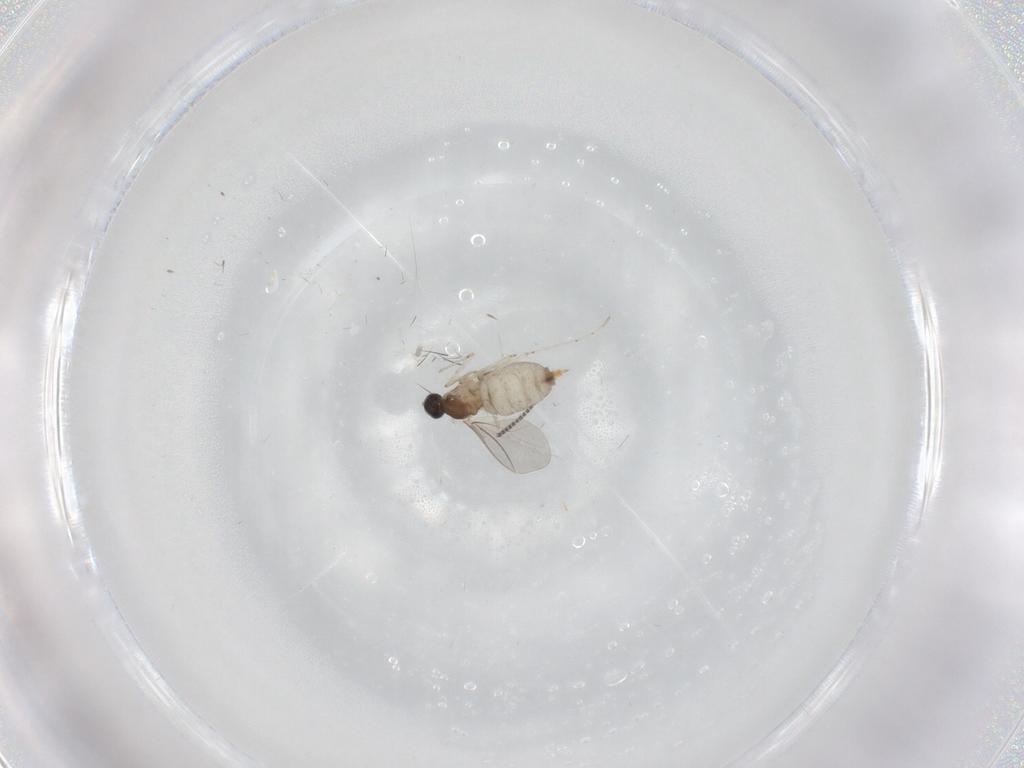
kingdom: Animalia
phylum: Arthropoda
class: Insecta
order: Diptera
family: Cecidomyiidae
